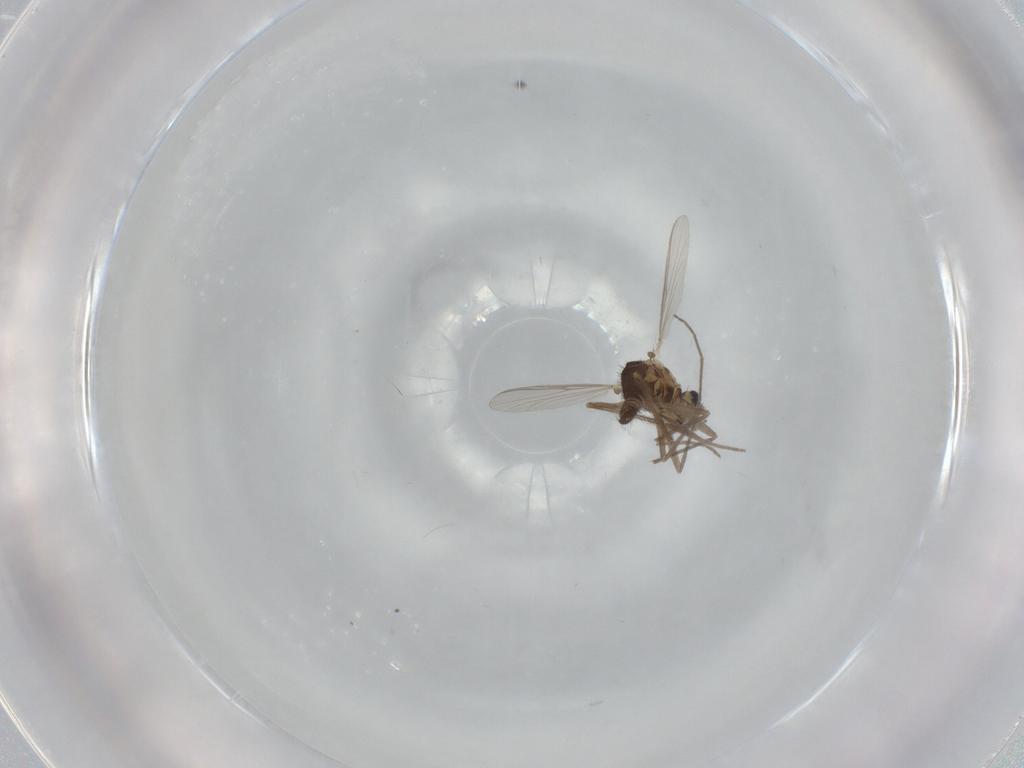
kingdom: Animalia
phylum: Arthropoda
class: Insecta
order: Diptera
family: Chironomidae
